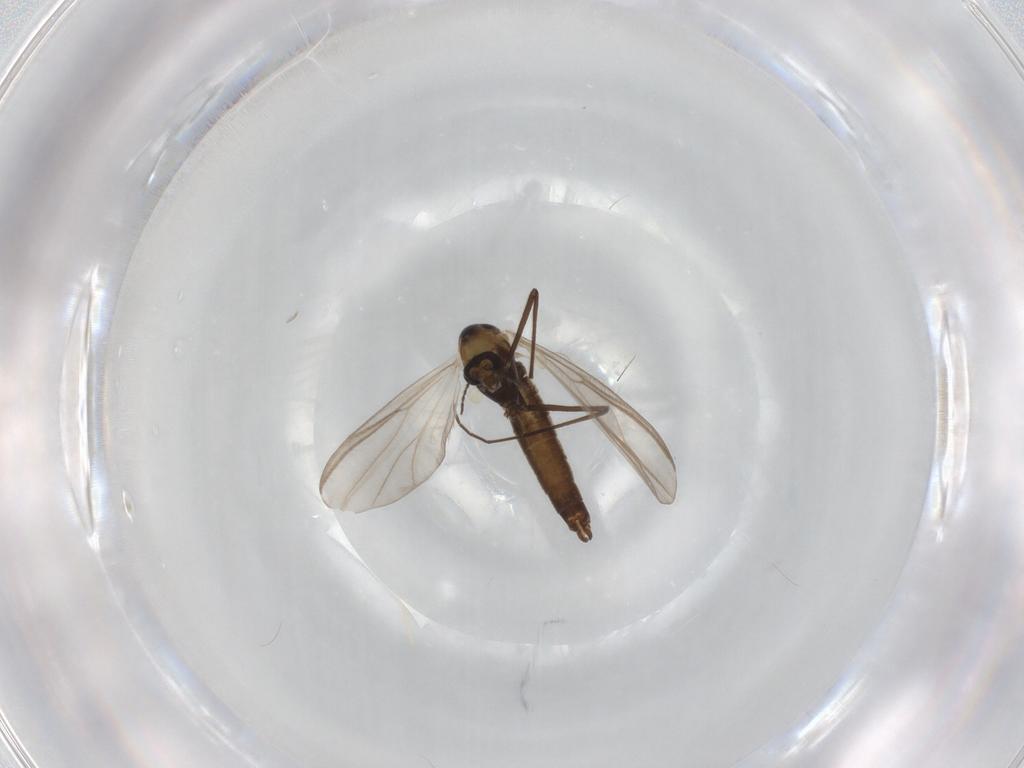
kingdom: Animalia
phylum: Arthropoda
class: Insecta
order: Diptera
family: Chironomidae
